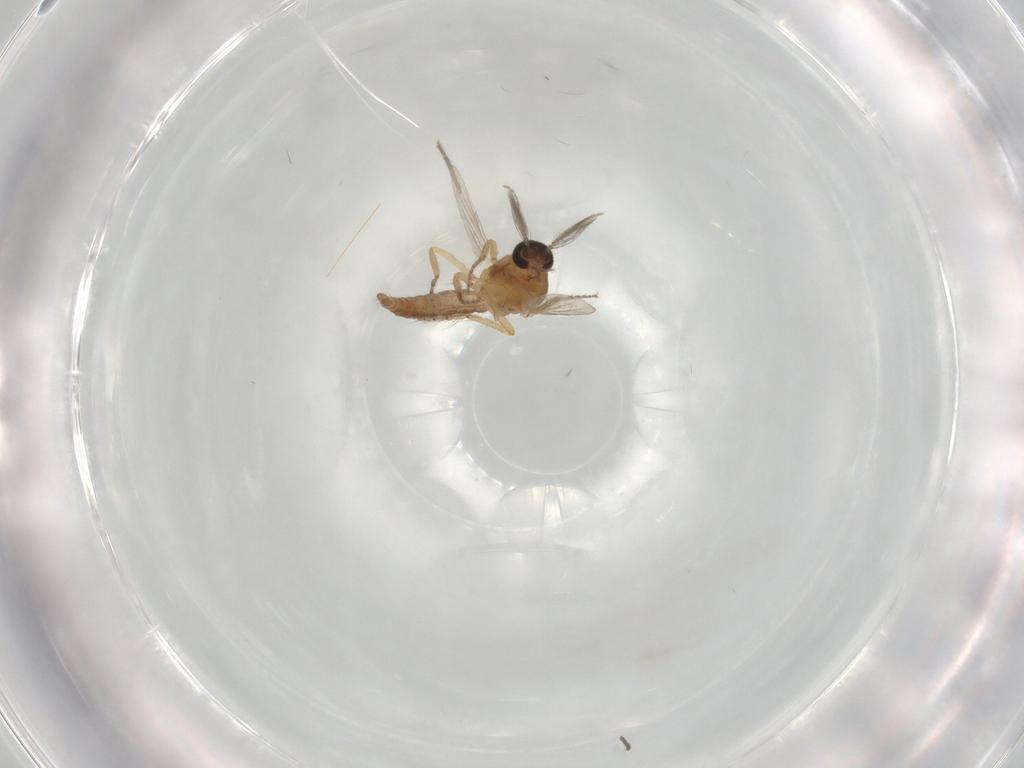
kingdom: Animalia
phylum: Arthropoda
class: Insecta
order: Diptera
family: Ceratopogonidae
